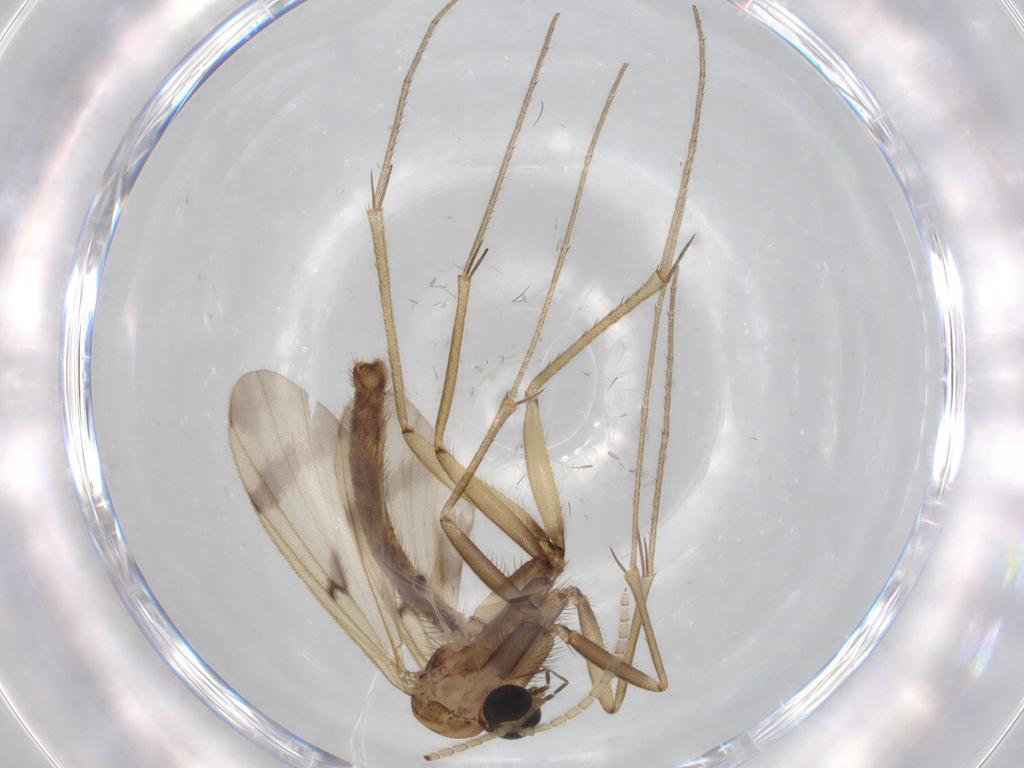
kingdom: Animalia
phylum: Arthropoda
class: Insecta
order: Diptera
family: Cecidomyiidae
